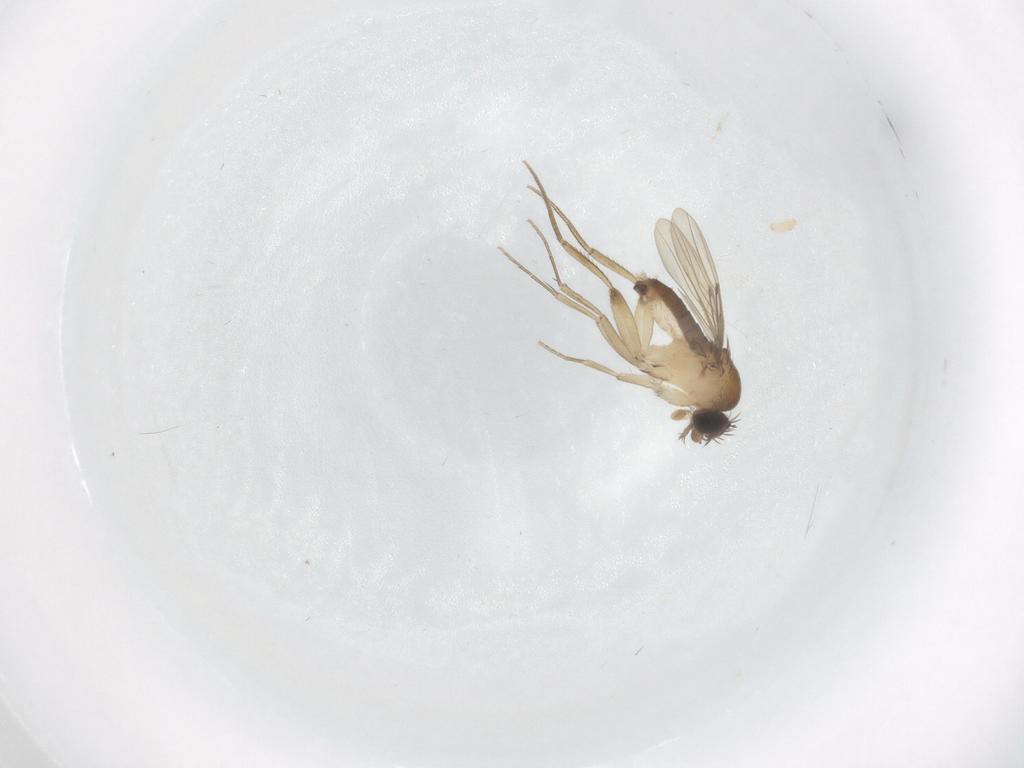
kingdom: Animalia
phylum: Arthropoda
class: Insecta
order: Diptera
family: Phoridae
